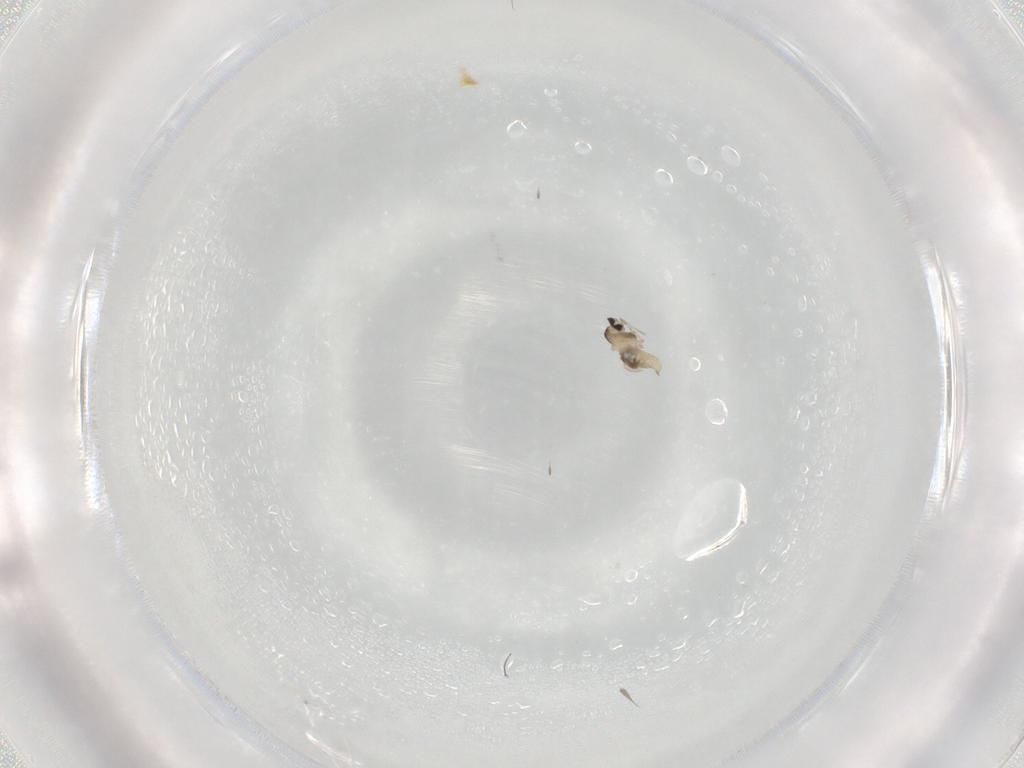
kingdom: Animalia
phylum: Arthropoda
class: Insecta
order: Diptera
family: Cecidomyiidae
